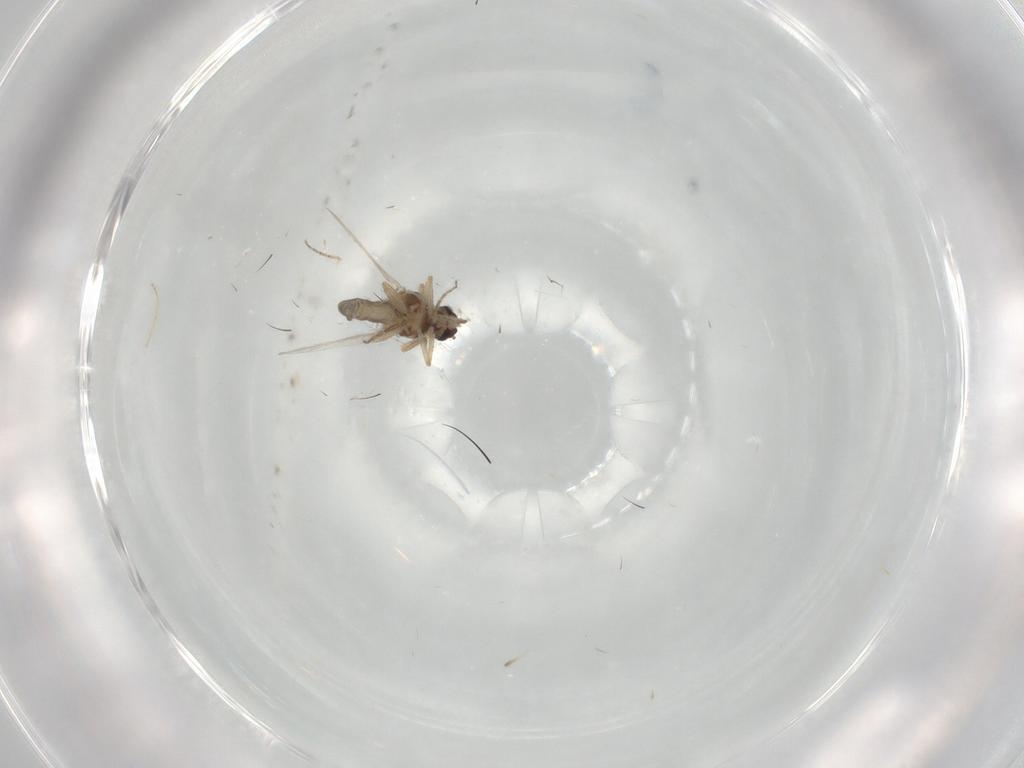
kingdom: Animalia
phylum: Arthropoda
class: Insecta
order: Diptera
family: Ceratopogonidae
